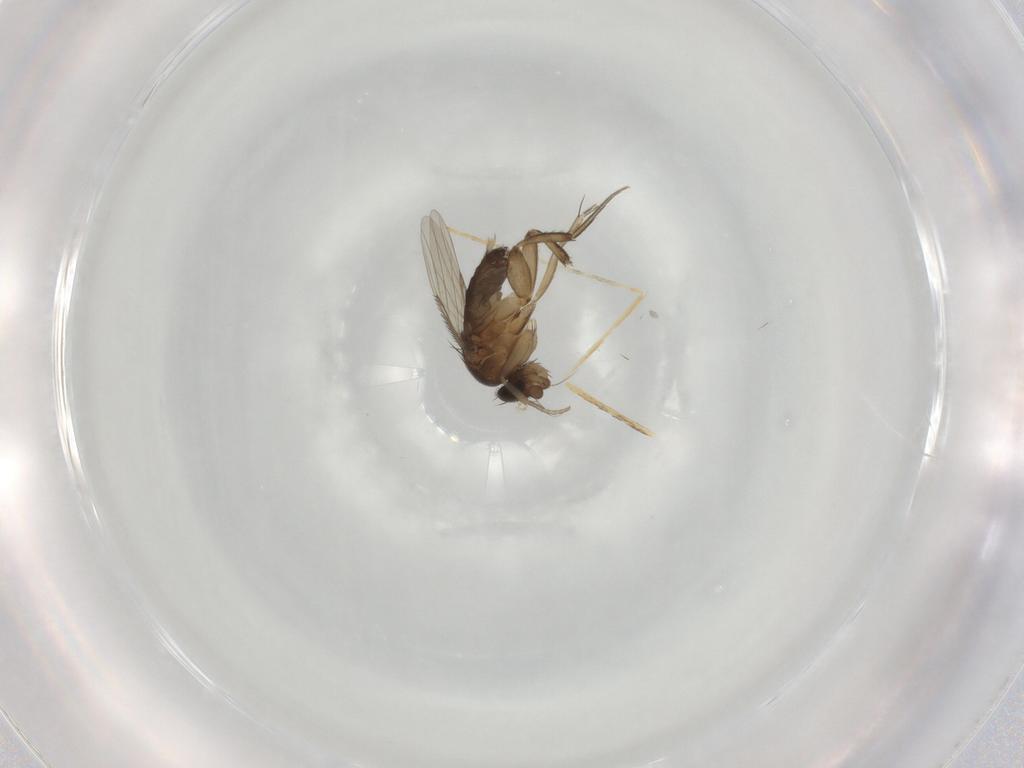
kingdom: Animalia
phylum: Arthropoda
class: Insecta
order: Diptera
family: Phoridae
